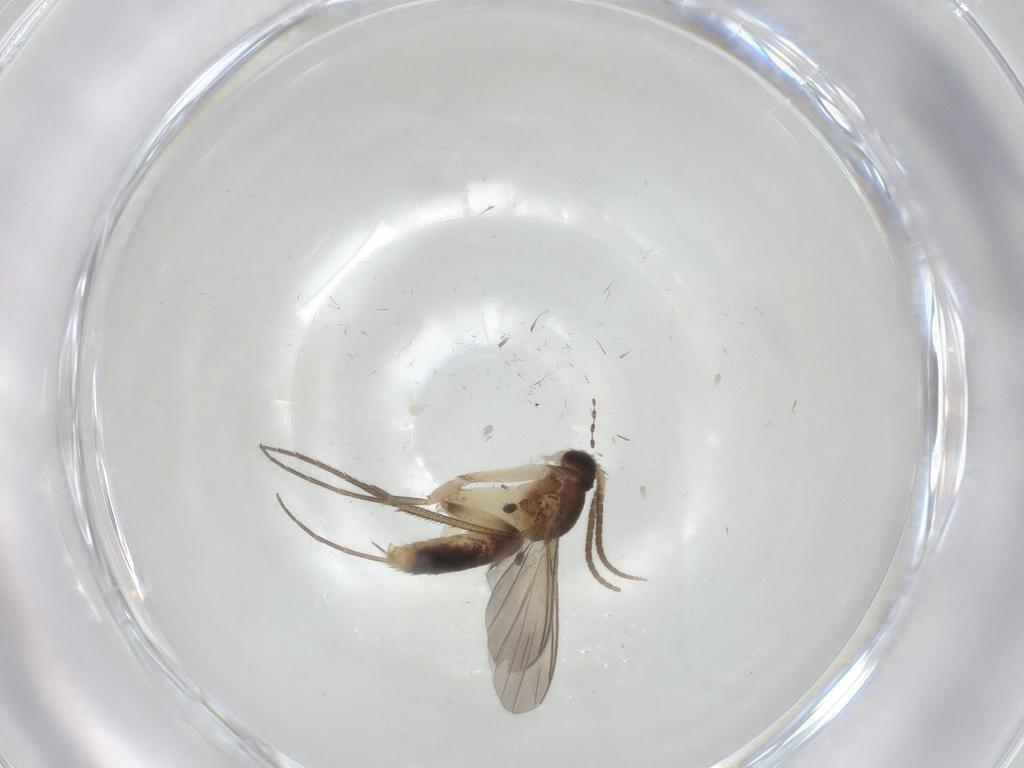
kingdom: Animalia
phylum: Arthropoda
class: Insecta
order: Diptera
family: Mycetophilidae
